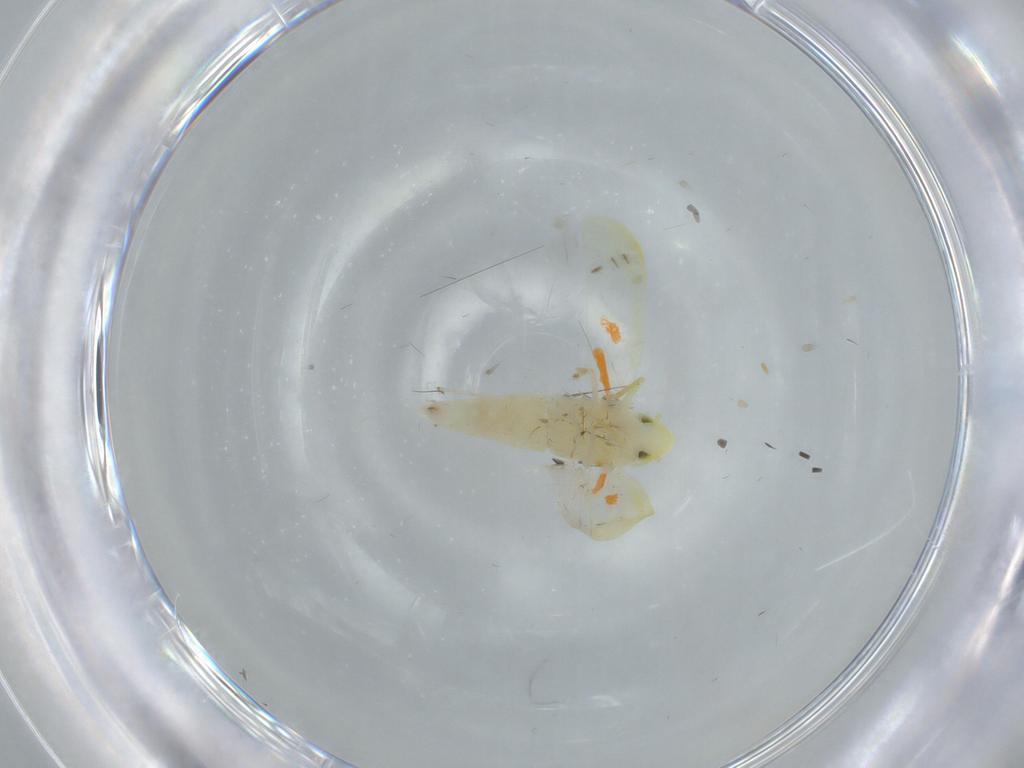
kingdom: Animalia
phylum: Arthropoda
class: Insecta
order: Hemiptera
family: Cicadellidae
